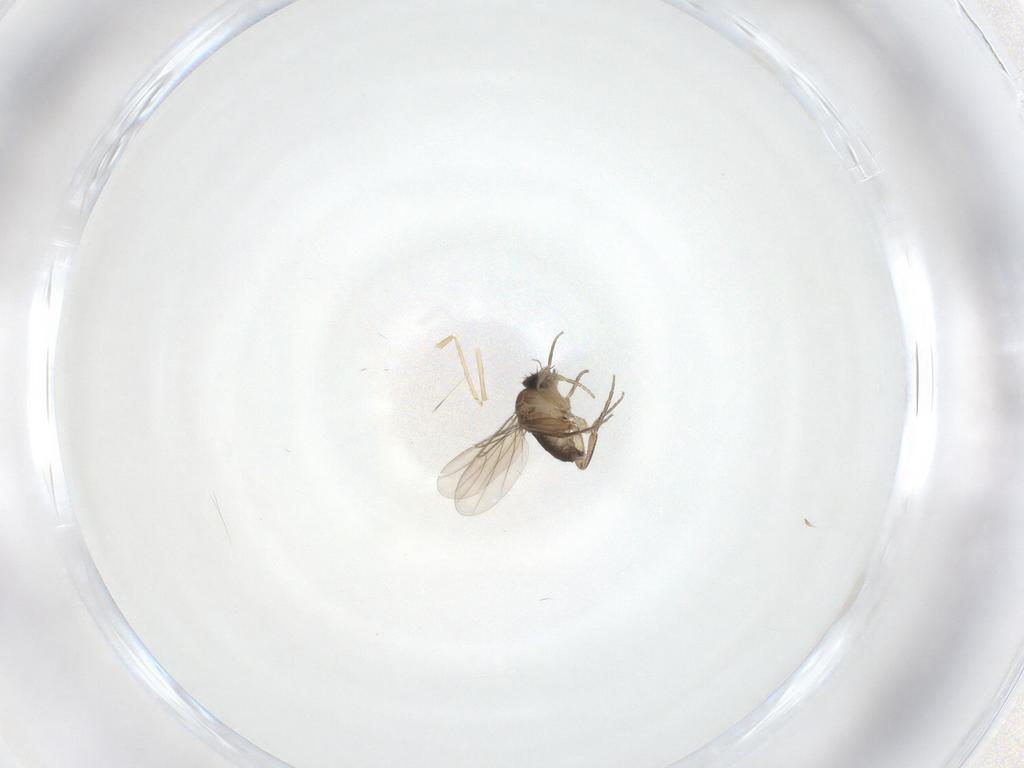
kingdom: Animalia
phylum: Arthropoda
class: Insecta
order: Diptera
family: Phoridae
